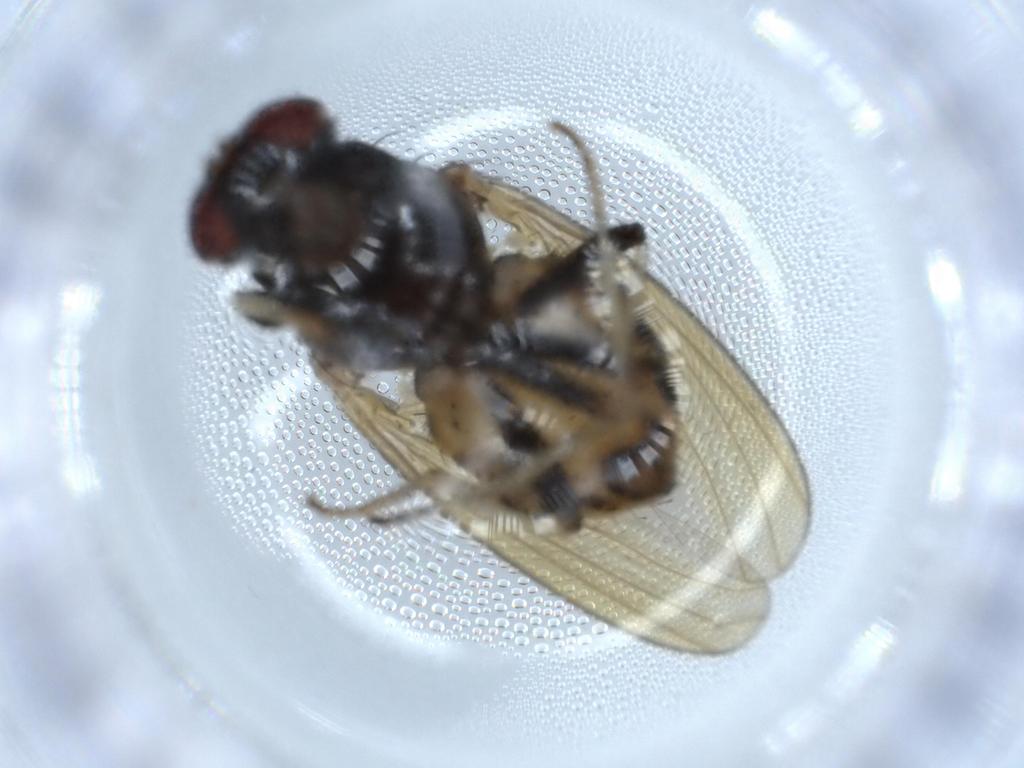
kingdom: Animalia
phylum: Arthropoda
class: Insecta
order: Diptera
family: Lauxaniidae
